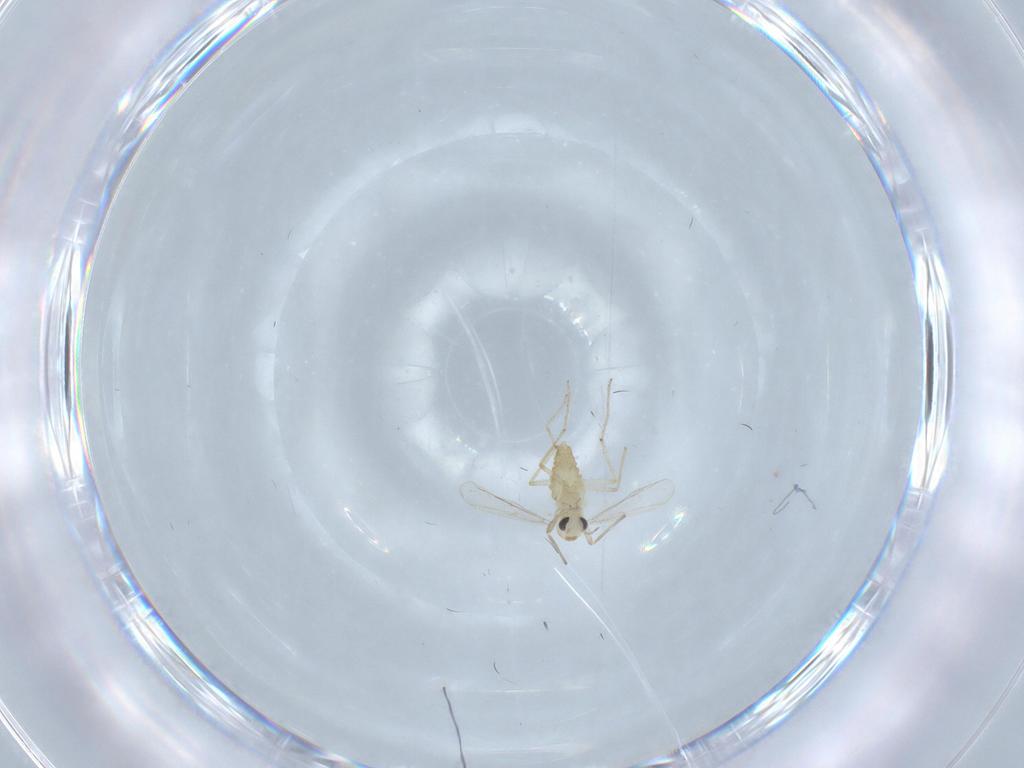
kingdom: Animalia
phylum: Arthropoda
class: Insecta
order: Diptera
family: Chironomidae
